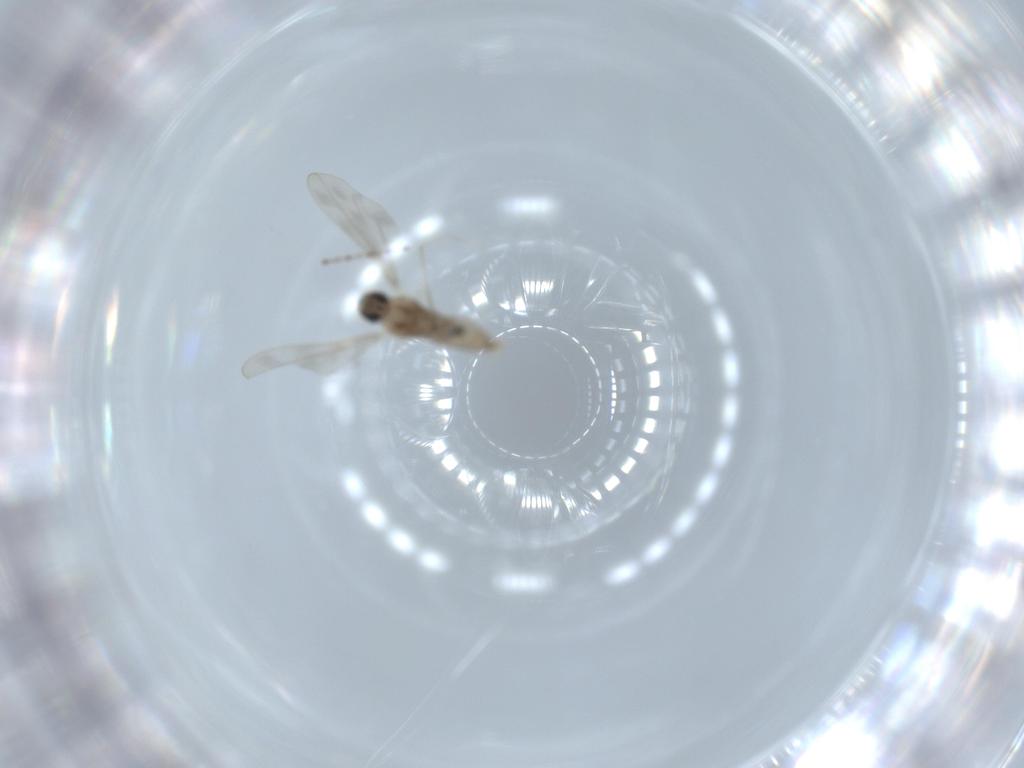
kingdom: Animalia
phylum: Arthropoda
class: Insecta
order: Diptera
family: Cecidomyiidae
